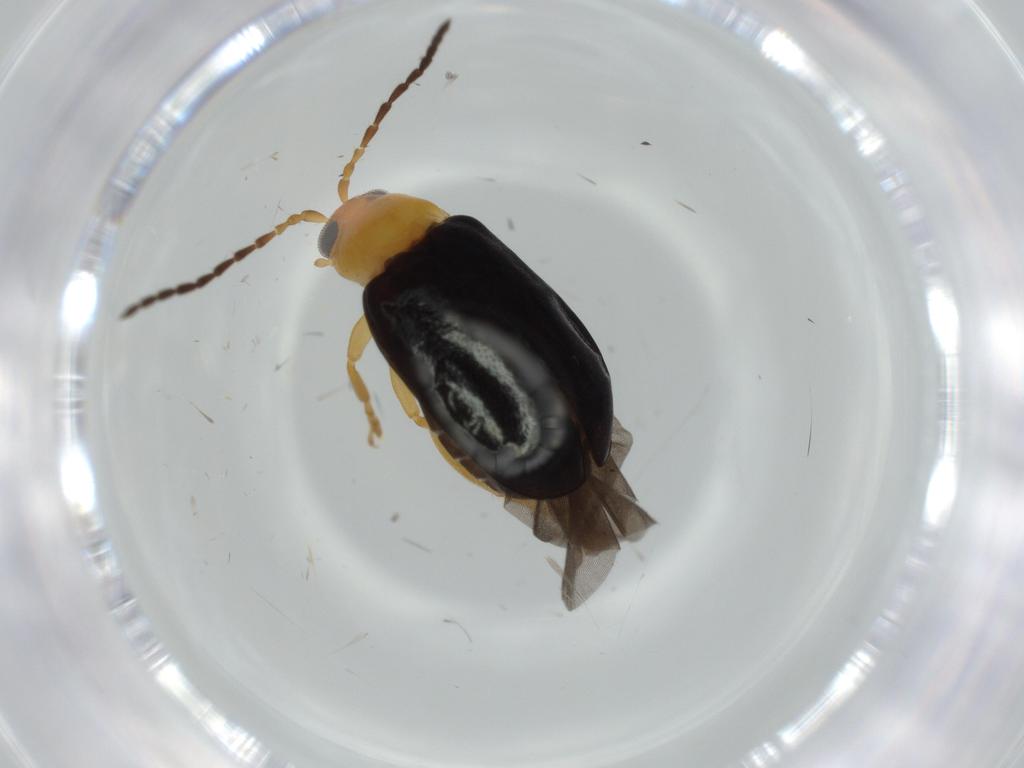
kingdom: Animalia
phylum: Arthropoda
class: Insecta
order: Coleoptera
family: Chrysomelidae
